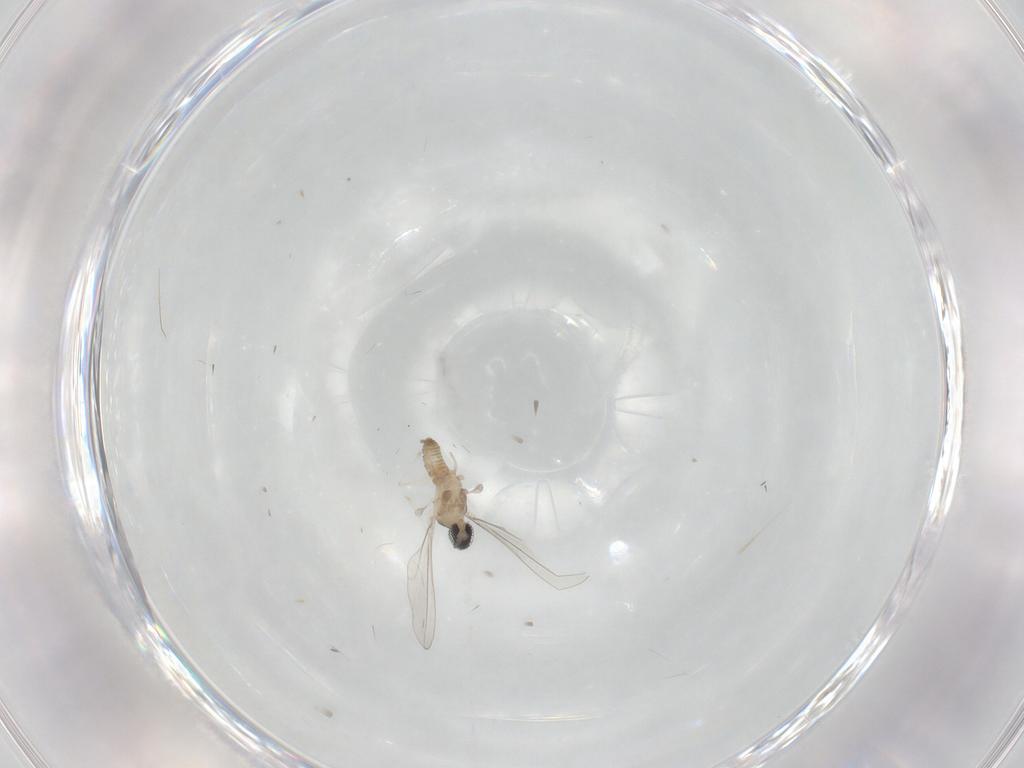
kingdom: Animalia
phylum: Arthropoda
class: Insecta
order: Diptera
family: Cecidomyiidae
